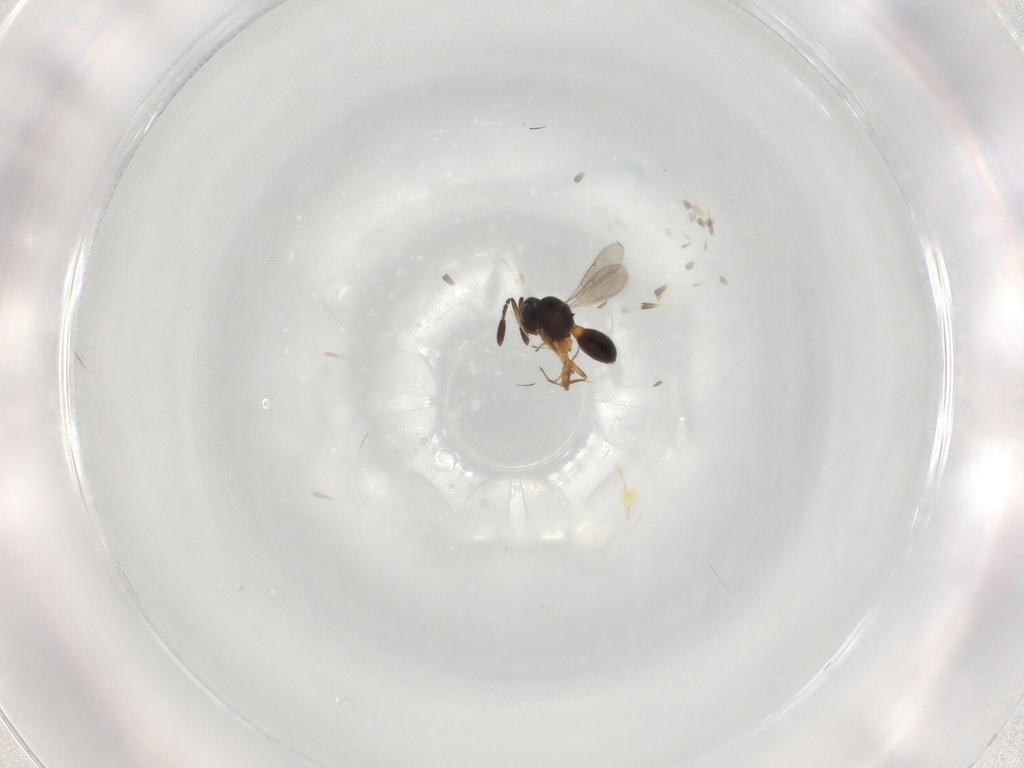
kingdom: Animalia
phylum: Arthropoda
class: Insecta
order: Hymenoptera
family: Scelionidae
